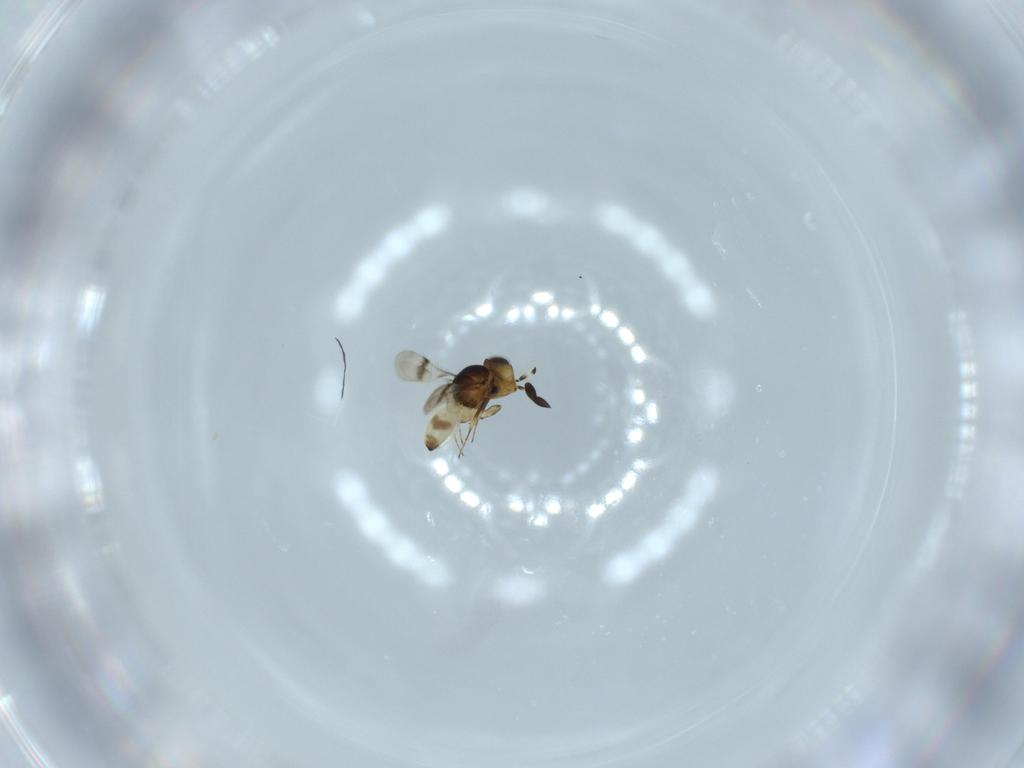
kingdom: Animalia
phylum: Arthropoda
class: Arachnida
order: Araneae
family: Pholcidae
